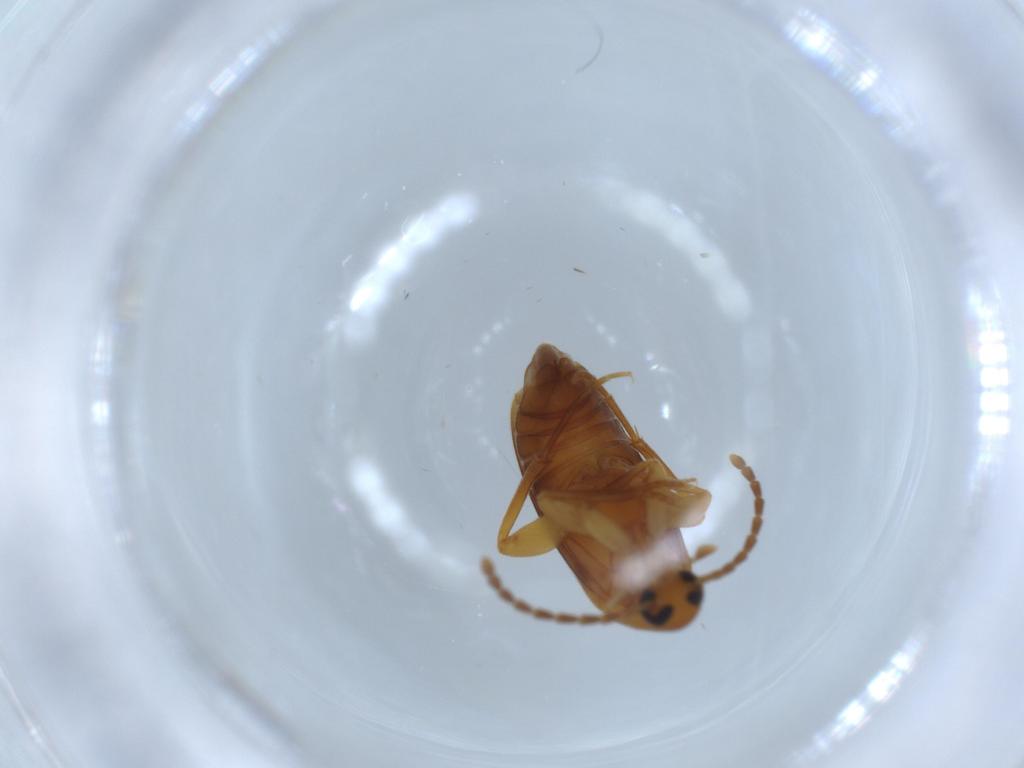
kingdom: Animalia
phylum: Arthropoda
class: Insecta
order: Coleoptera
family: Scraptiidae
